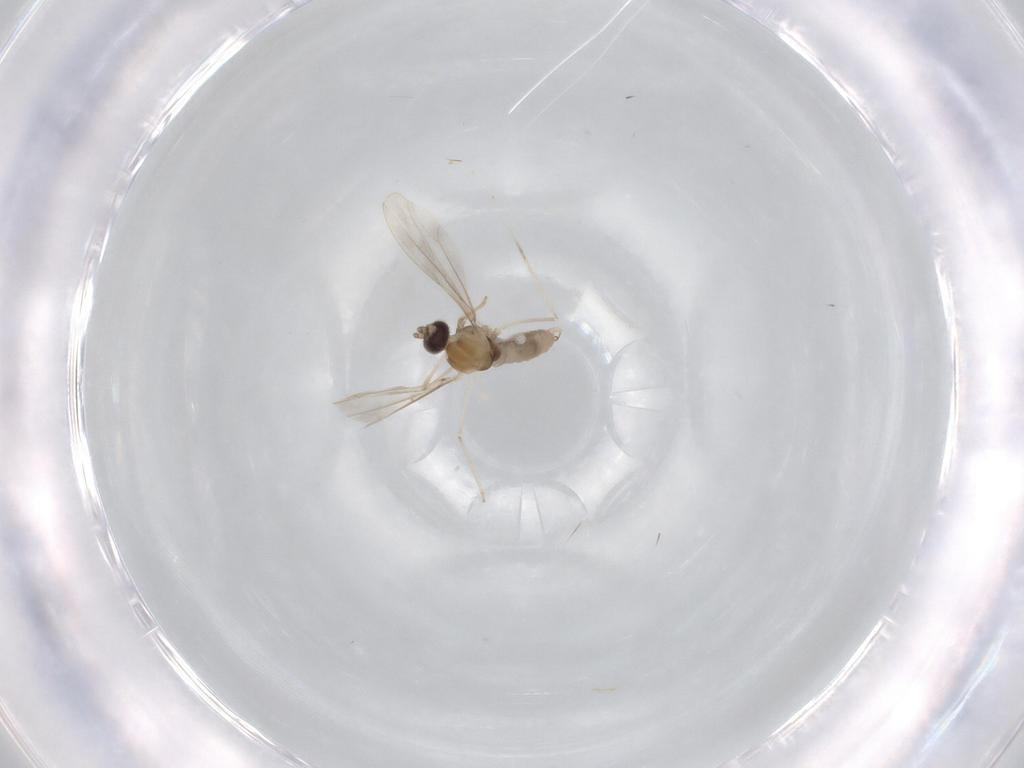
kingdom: Animalia
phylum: Arthropoda
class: Insecta
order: Diptera
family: Cecidomyiidae
